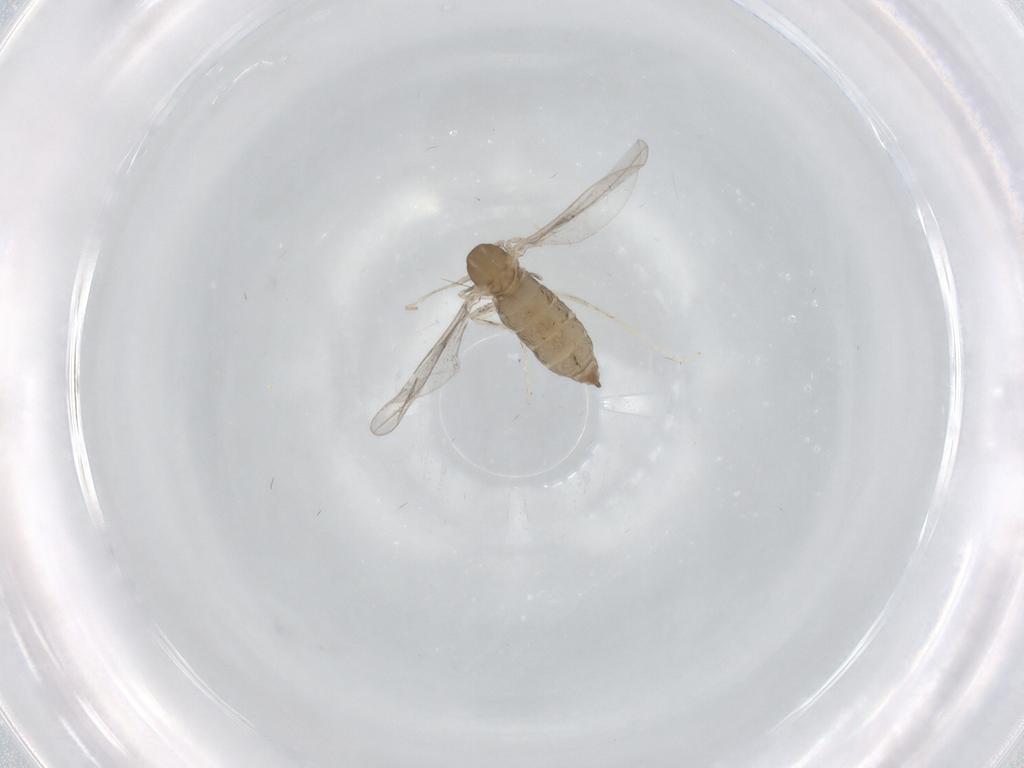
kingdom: Animalia
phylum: Arthropoda
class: Insecta
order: Diptera
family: Cecidomyiidae
